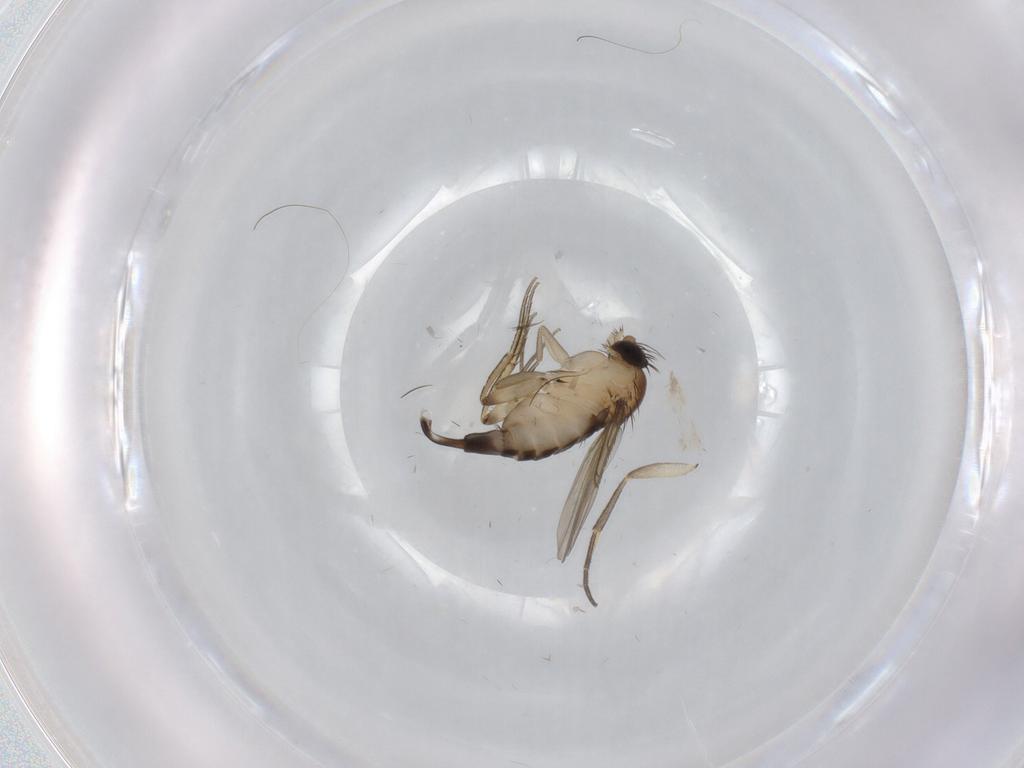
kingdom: Animalia
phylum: Arthropoda
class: Insecta
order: Diptera
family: Phoridae
